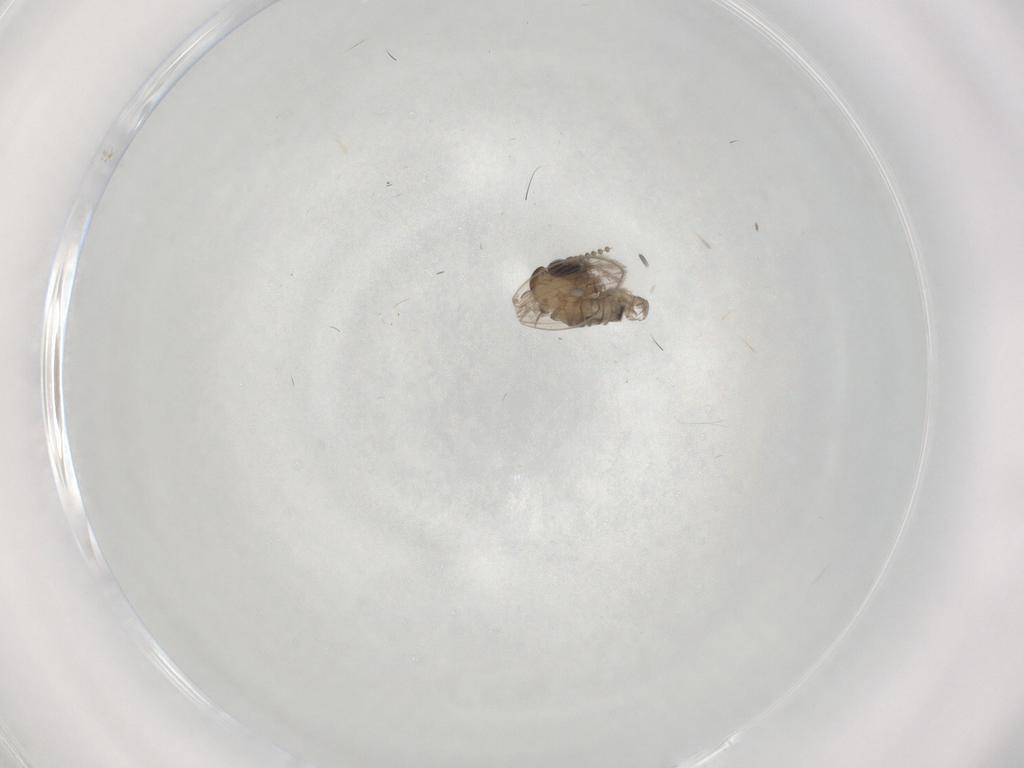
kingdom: Animalia
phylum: Arthropoda
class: Insecta
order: Diptera
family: Psychodidae
